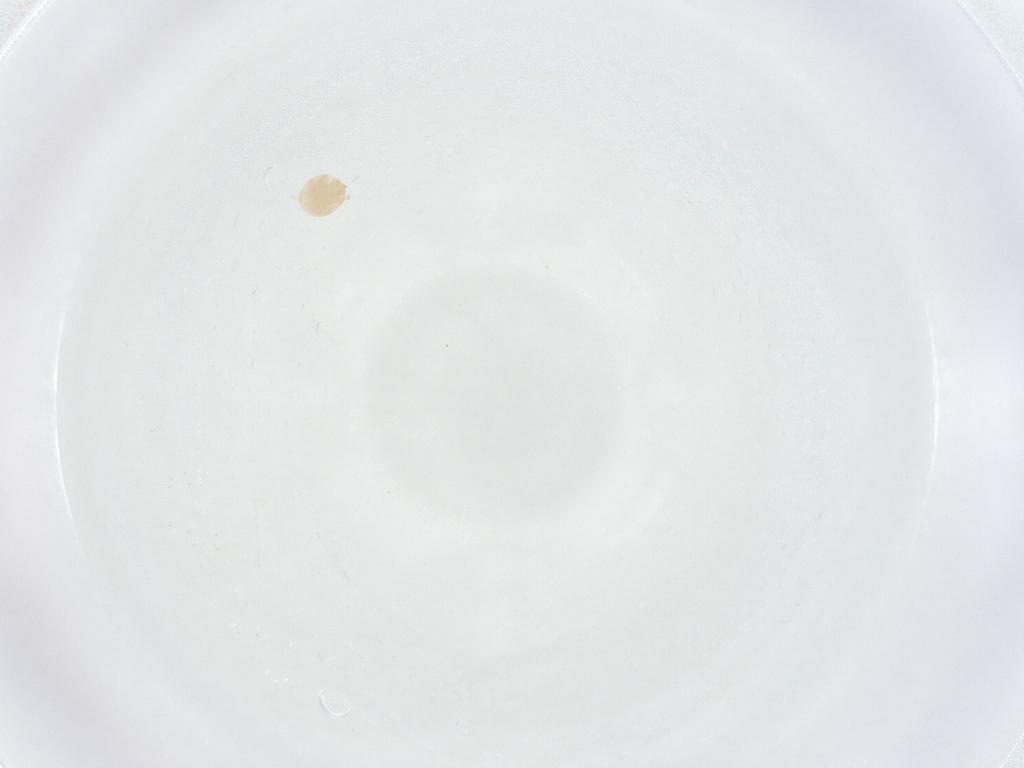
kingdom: Animalia
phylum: Arthropoda
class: Arachnida
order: Mesostigmata
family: Trematuridae
